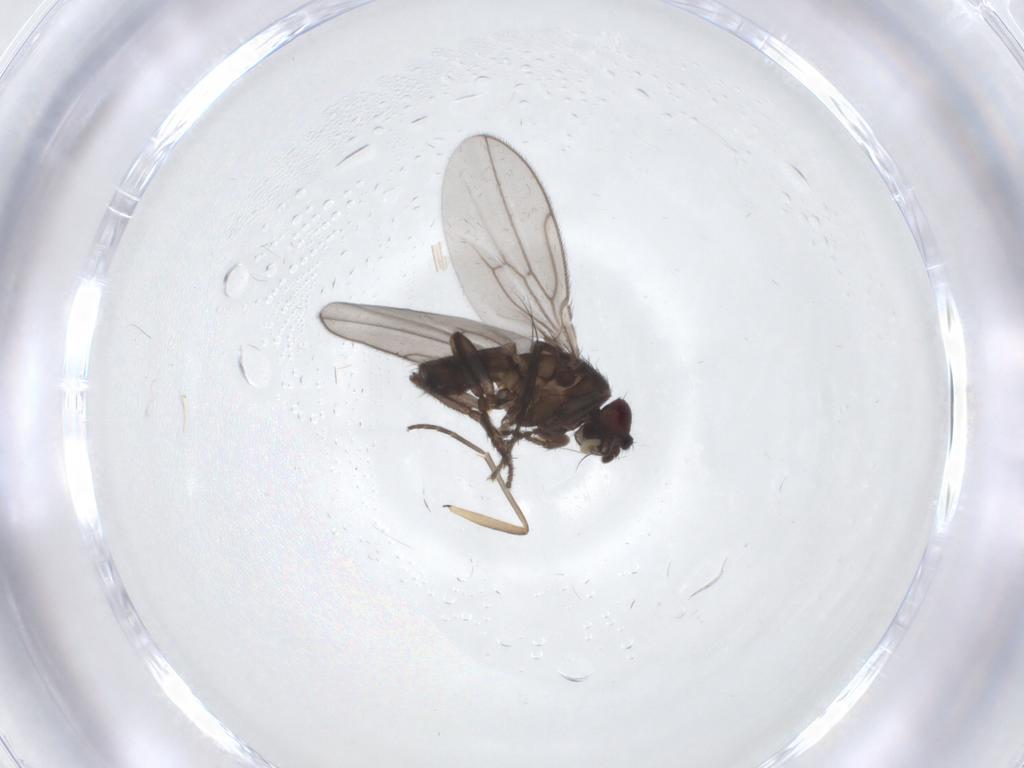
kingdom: Animalia
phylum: Arthropoda
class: Insecta
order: Diptera
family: Sphaeroceridae
